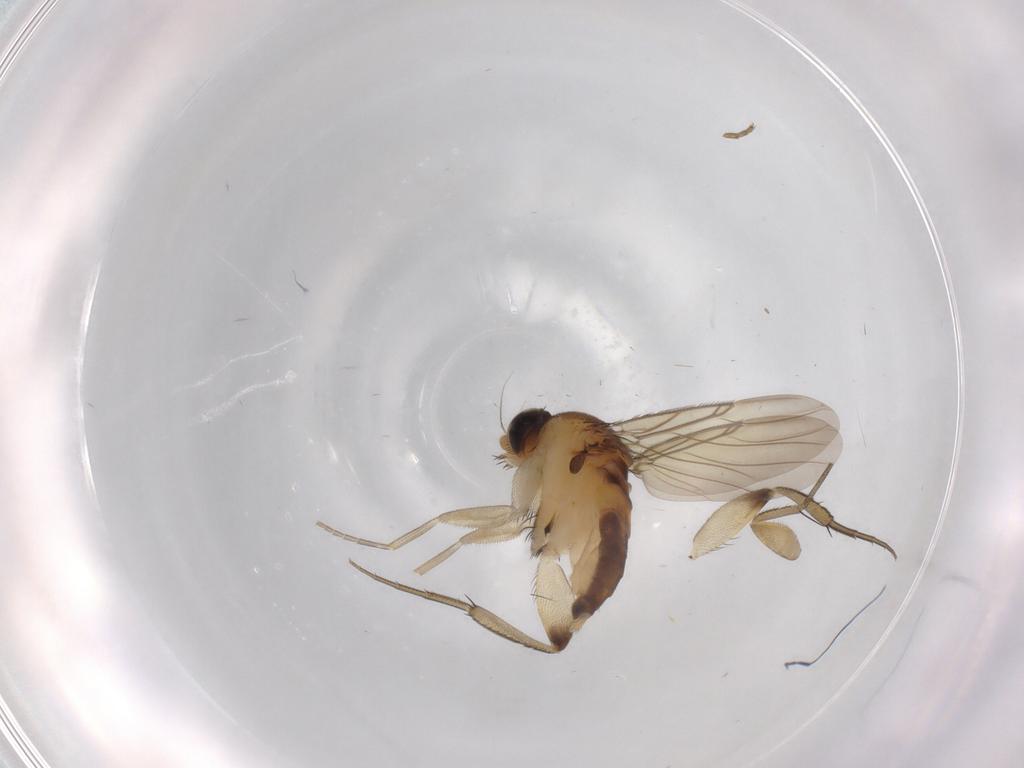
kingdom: Animalia
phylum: Arthropoda
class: Insecta
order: Diptera
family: Phoridae
